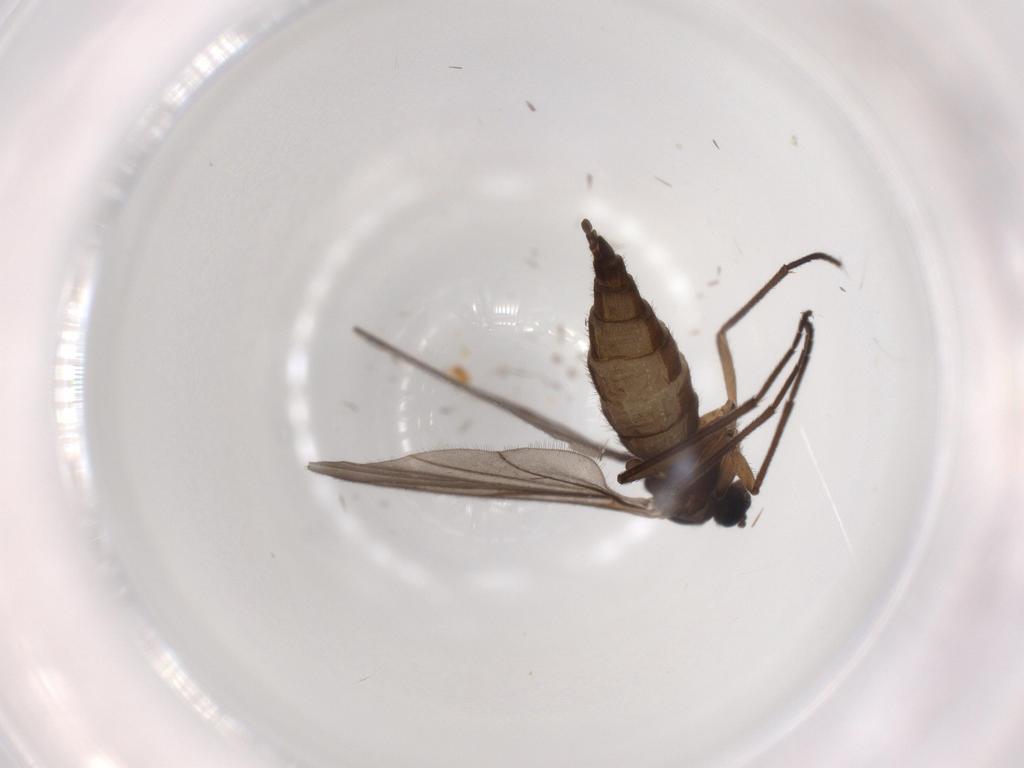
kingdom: Animalia
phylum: Arthropoda
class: Insecta
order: Diptera
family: Sciaridae
